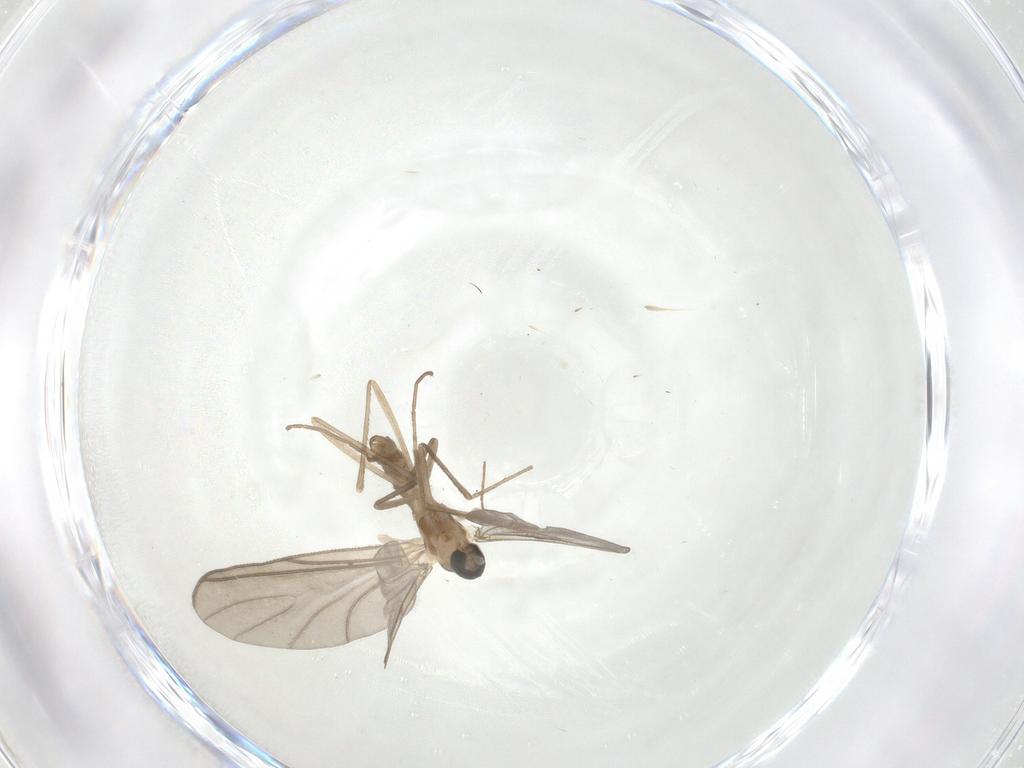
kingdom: Animalia
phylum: Arthropoda
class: Insecta
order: Diptera
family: Cecidomyiidae
